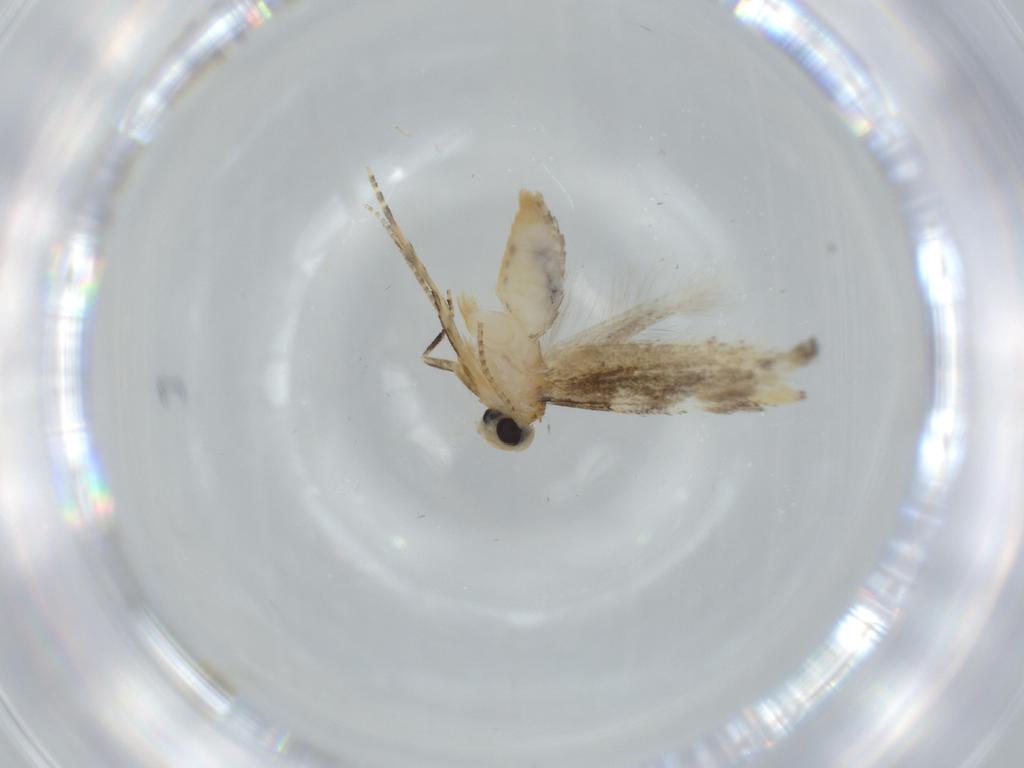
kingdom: Animalia
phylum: Arthropoda
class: Insecta
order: Lepidoptera
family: Bucculatricidae
